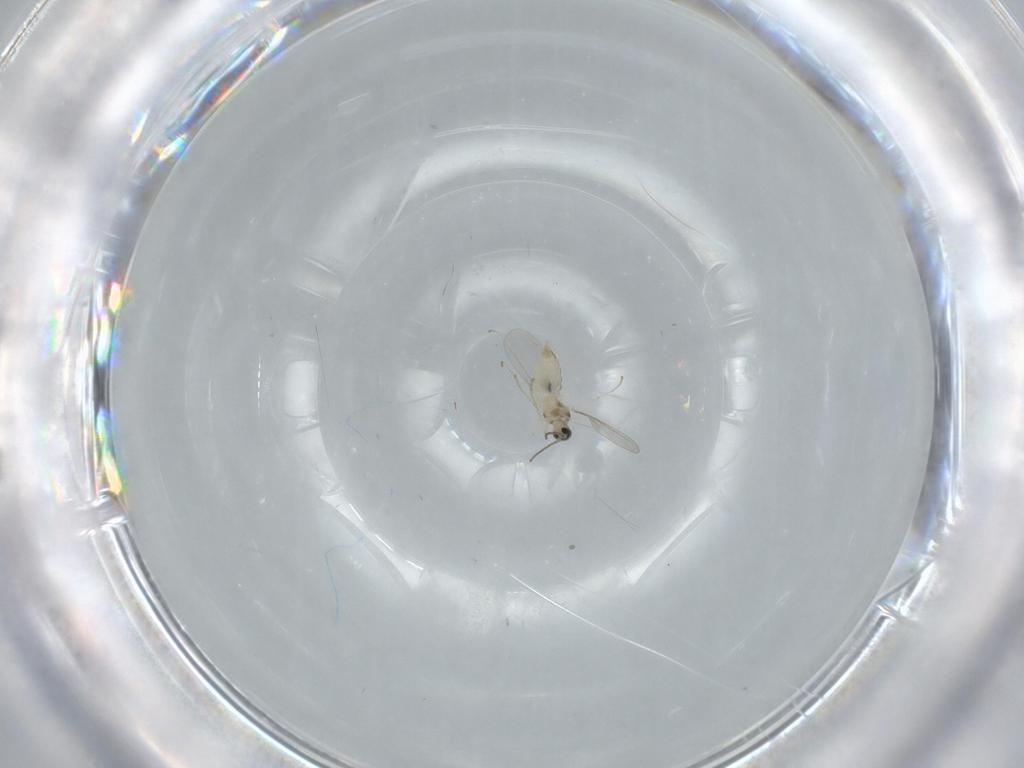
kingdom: Animalia
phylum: Arthropoda
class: Insecta
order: Diptera
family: Cecidomyiidae
